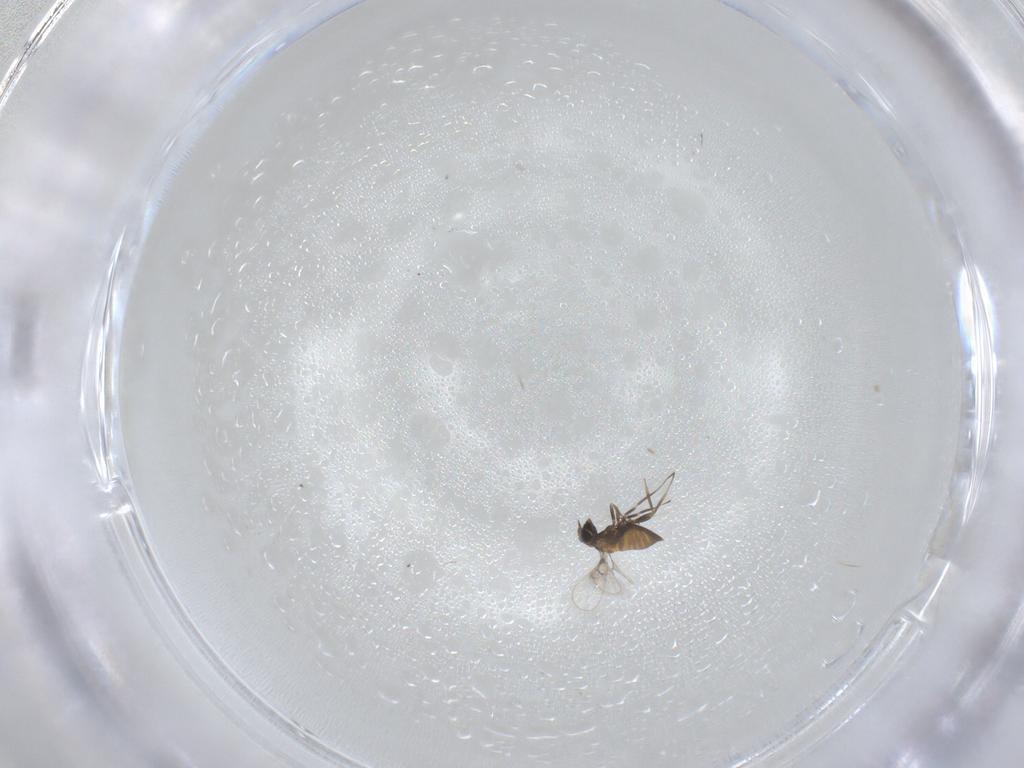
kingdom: Animalia
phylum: Arthropoda
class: Insecta
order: Hymenoptera
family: Trichogrammatidae
